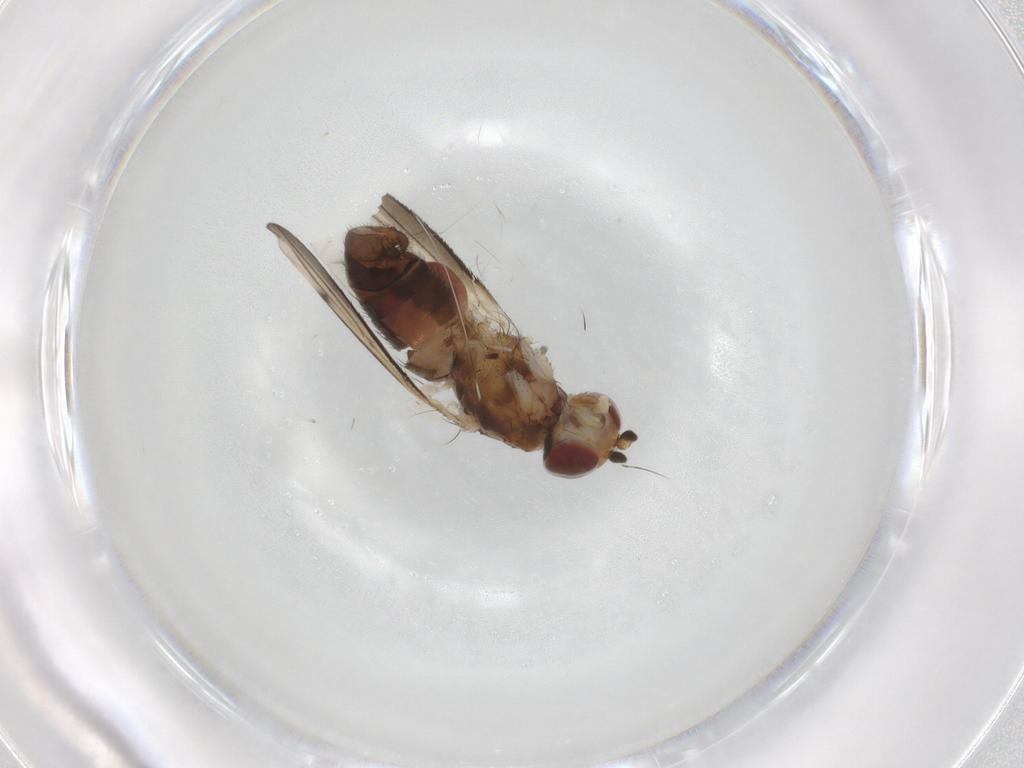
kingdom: Animalia
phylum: Arthropoda
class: Insecta
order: Diptera
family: Heleomyzidae
